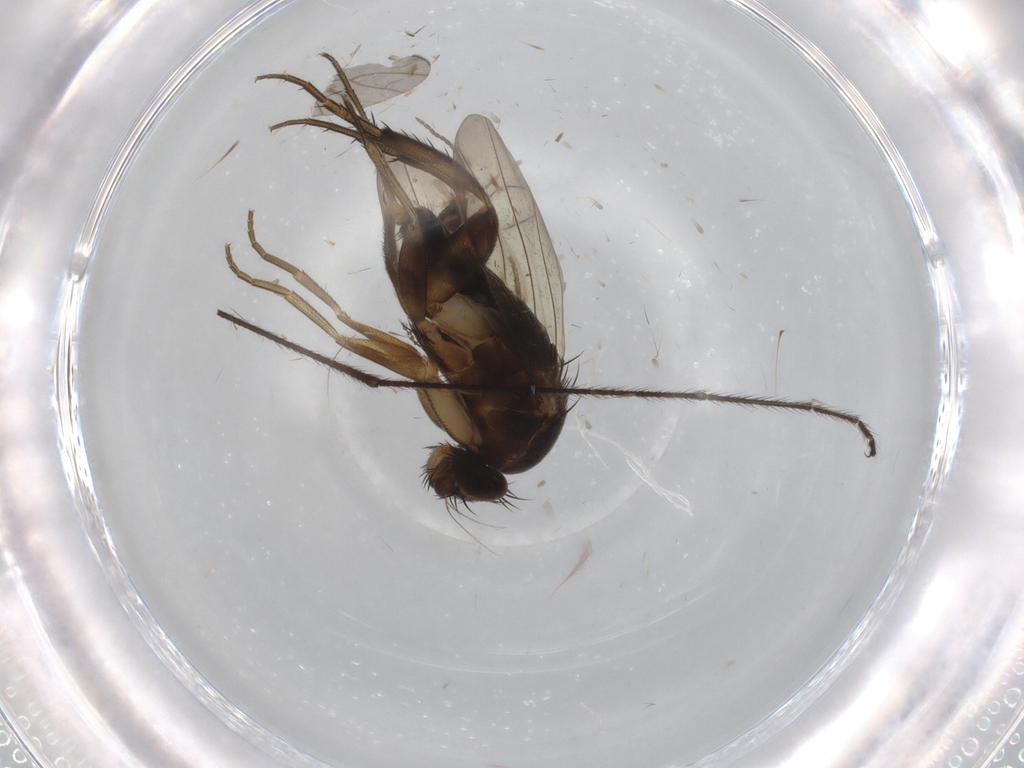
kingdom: Animalia
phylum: Arthropoda
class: Insecta
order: Diptera
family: Limoniidae
